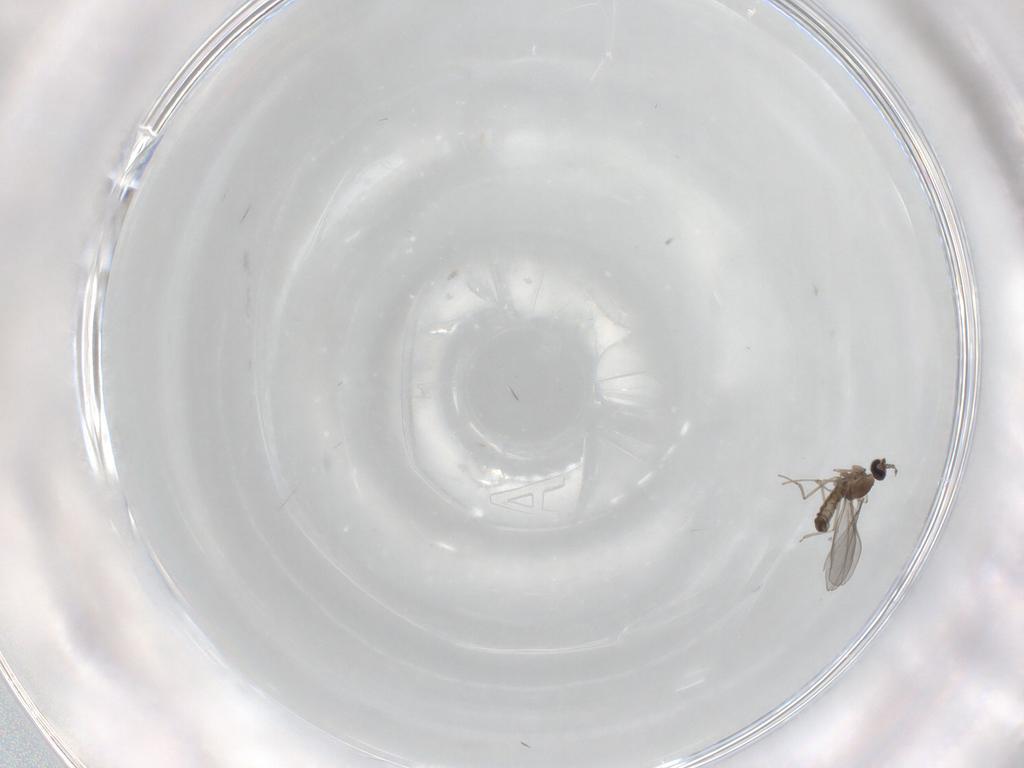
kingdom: Animalia
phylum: Arthropoda
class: Insecta
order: Diptera
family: Cecidomyiidae
